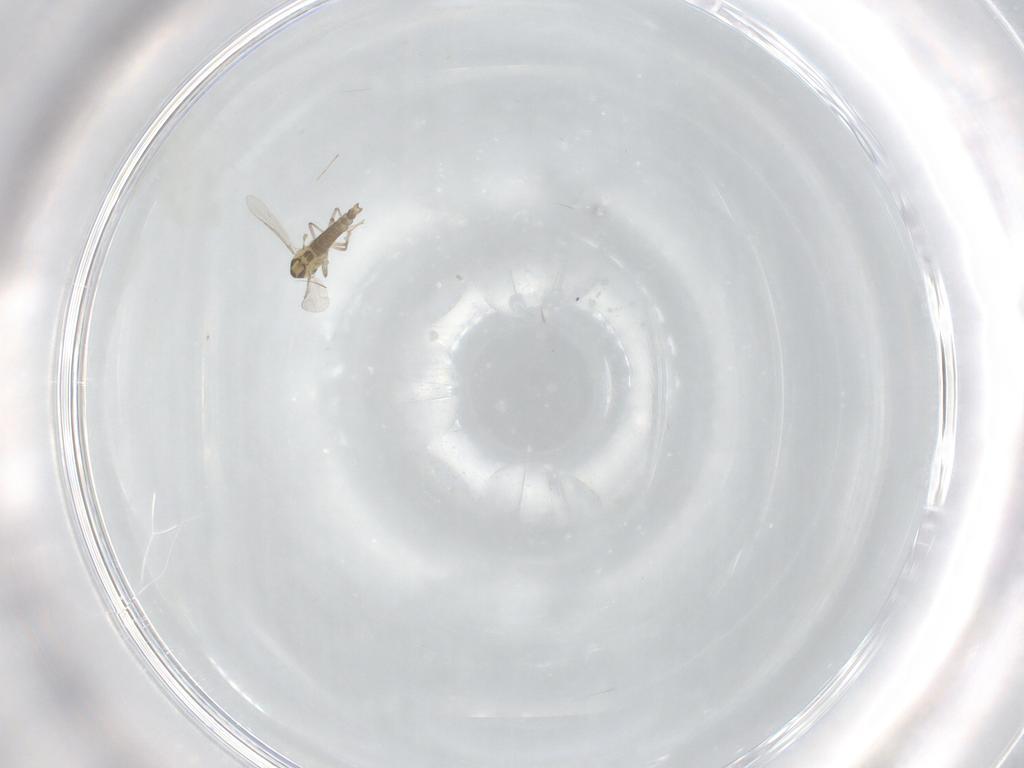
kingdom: Animalia
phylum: Arthropoda
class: Insecta
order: Diptera
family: Chironomidae
